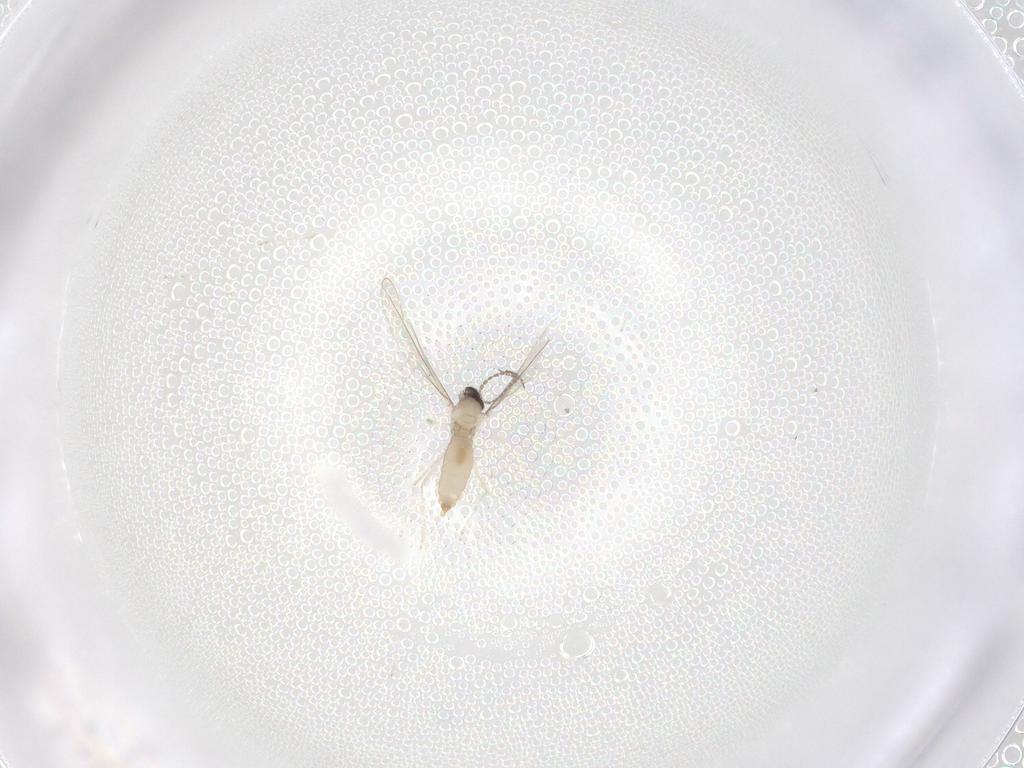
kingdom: Animalia
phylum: Arthropoda
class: Insecta
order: Diptera
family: Cecidomyiidae
